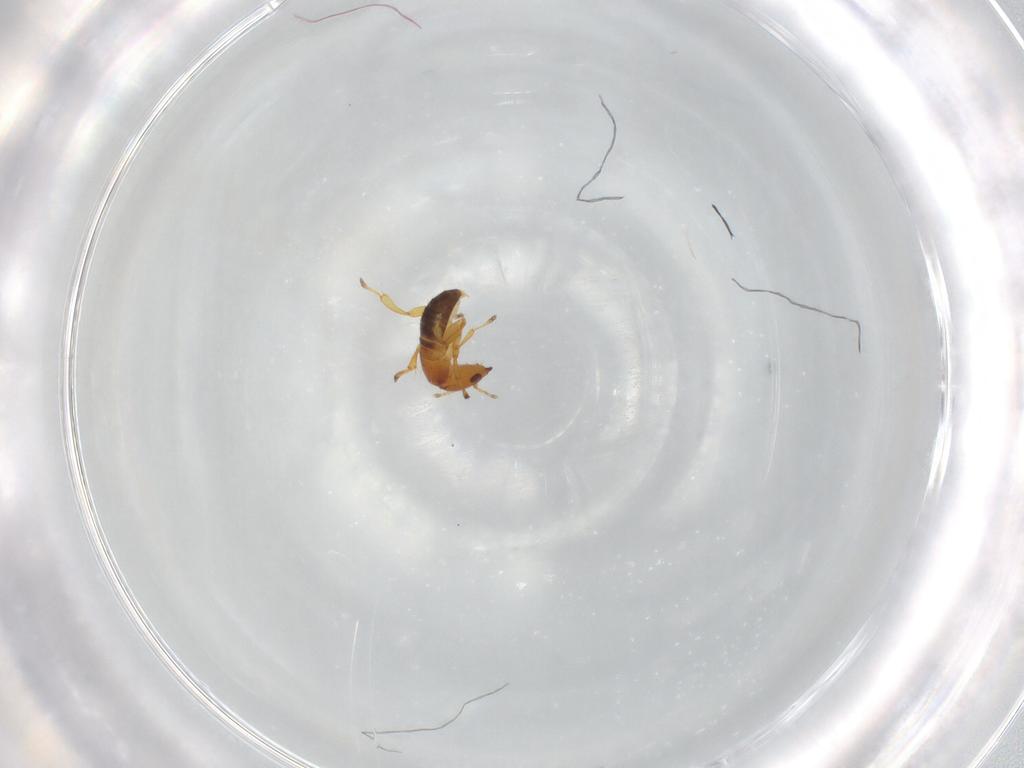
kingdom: Animalia
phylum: Arthropoda
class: Insecta
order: Hymenoptera
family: Pteromalidae
